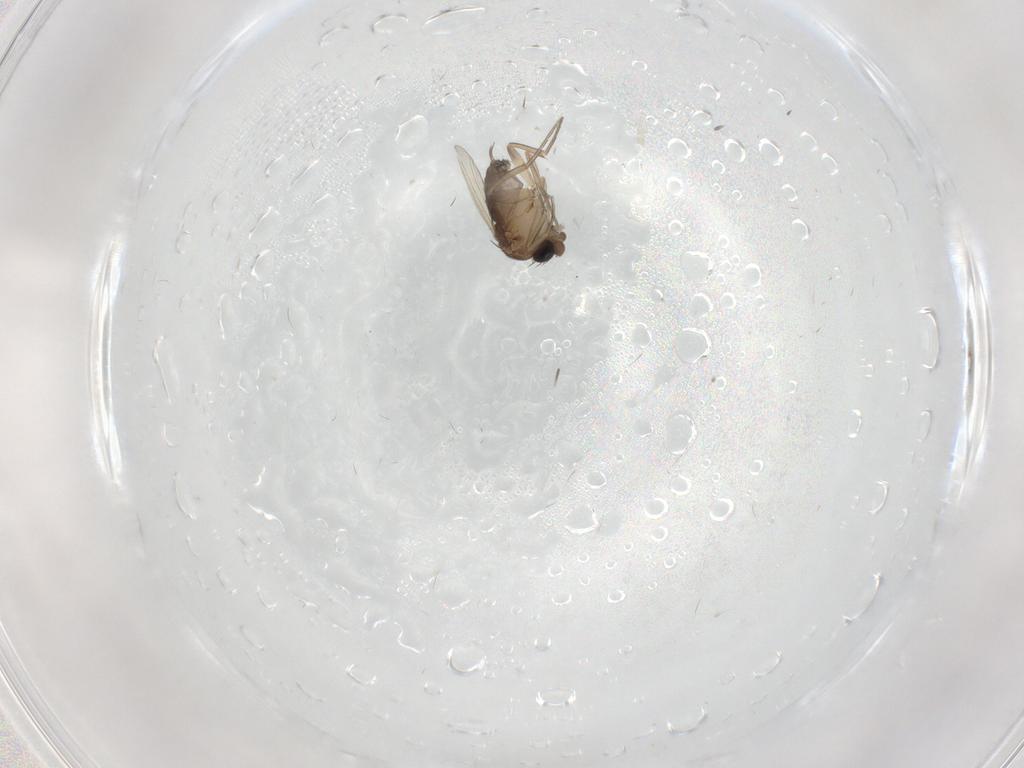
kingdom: Animalia
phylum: Arthropoda
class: Insecta
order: Diptera
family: Phoridae
